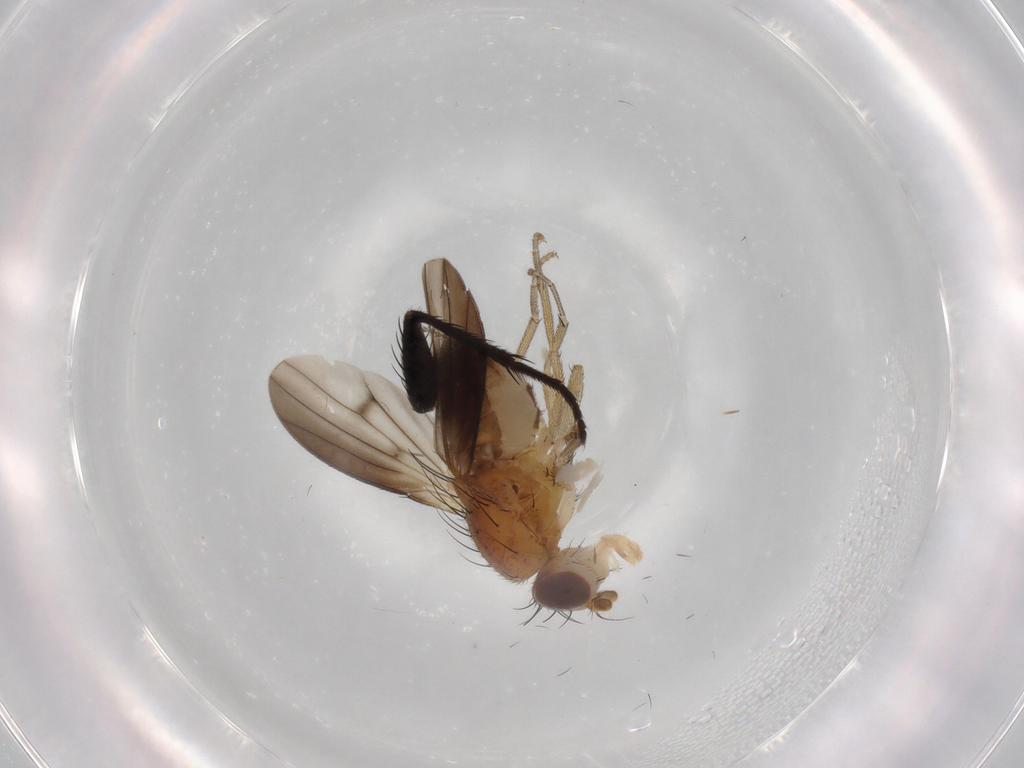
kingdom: Animalia
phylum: Arthropoda
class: Insecta
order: Diptera
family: Heleomyzidae
